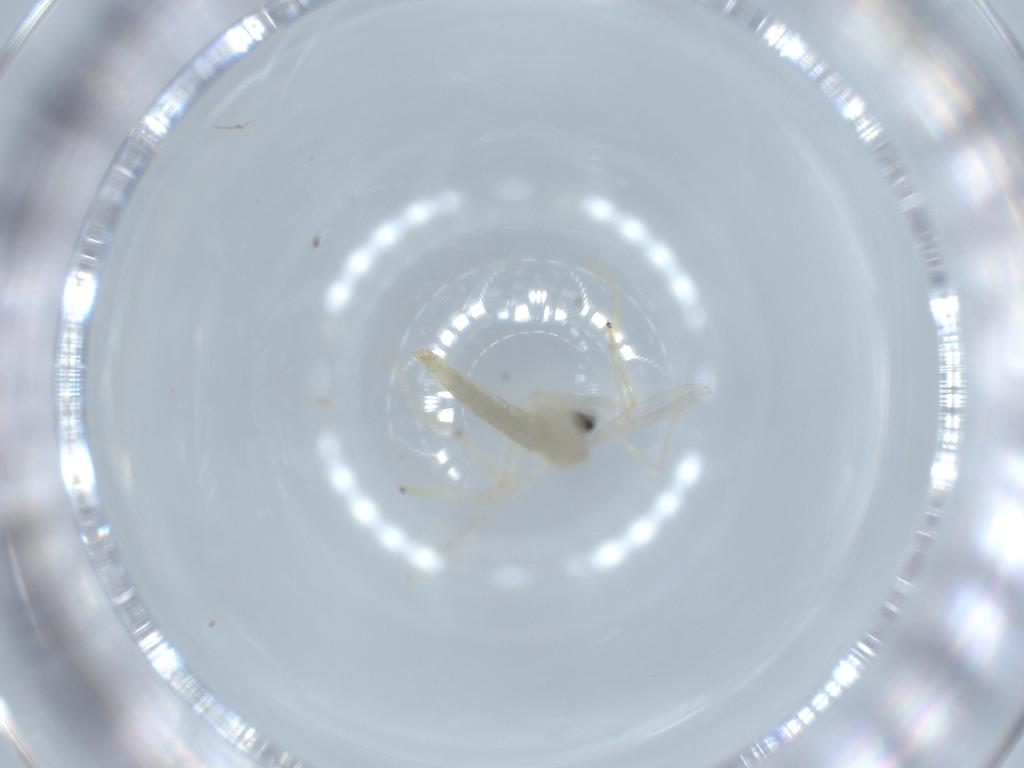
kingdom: Animalia
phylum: Arthropoda
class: Insecta
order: Diptera
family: Chironomidae
